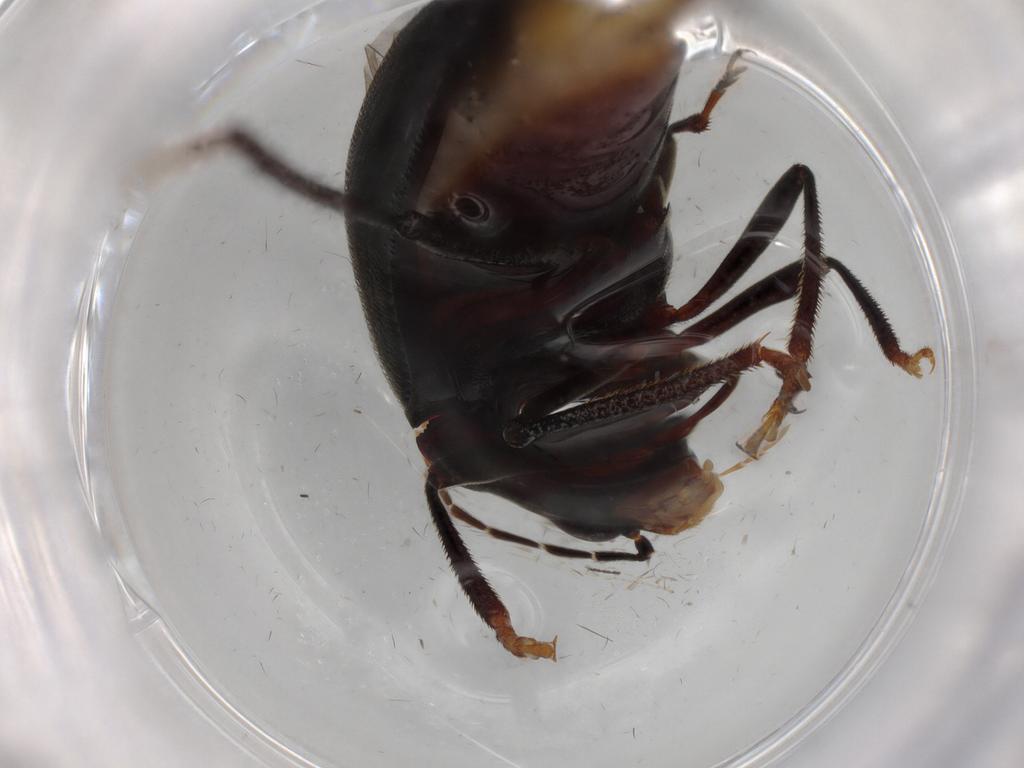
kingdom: Animalia
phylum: Arthropoda
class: Insecta
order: Coleoptera
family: Ptilodactylidae
